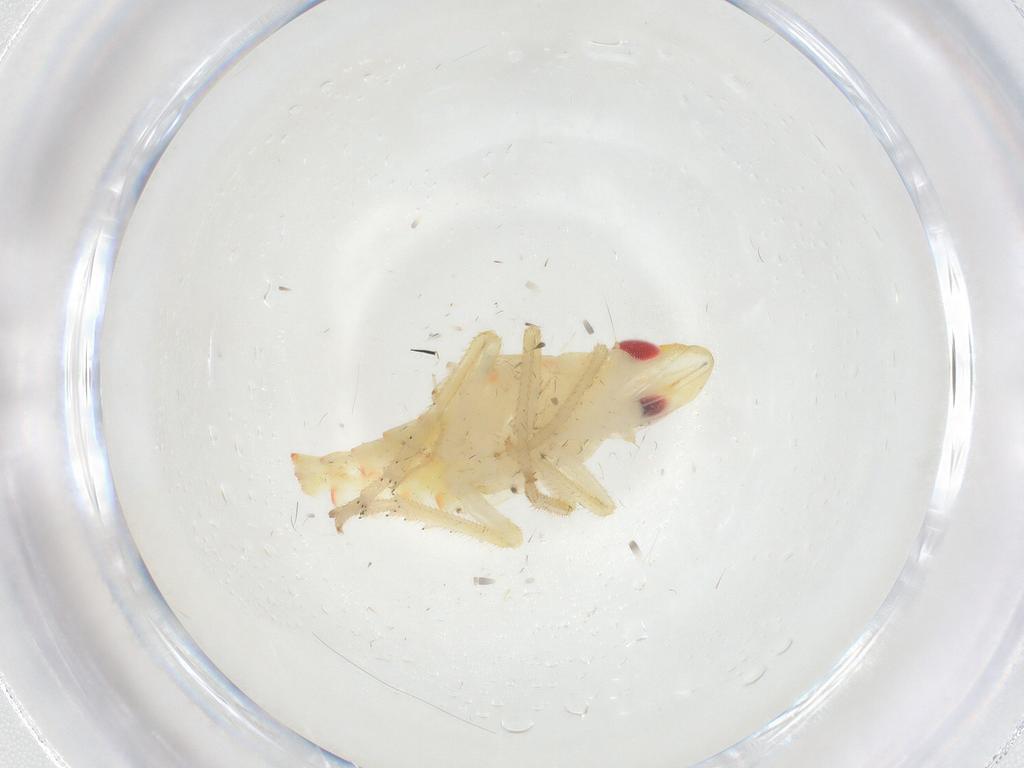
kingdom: Animalia
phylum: Arthropoda
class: Insecta
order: Hemiptera
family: Tropiduchidae
